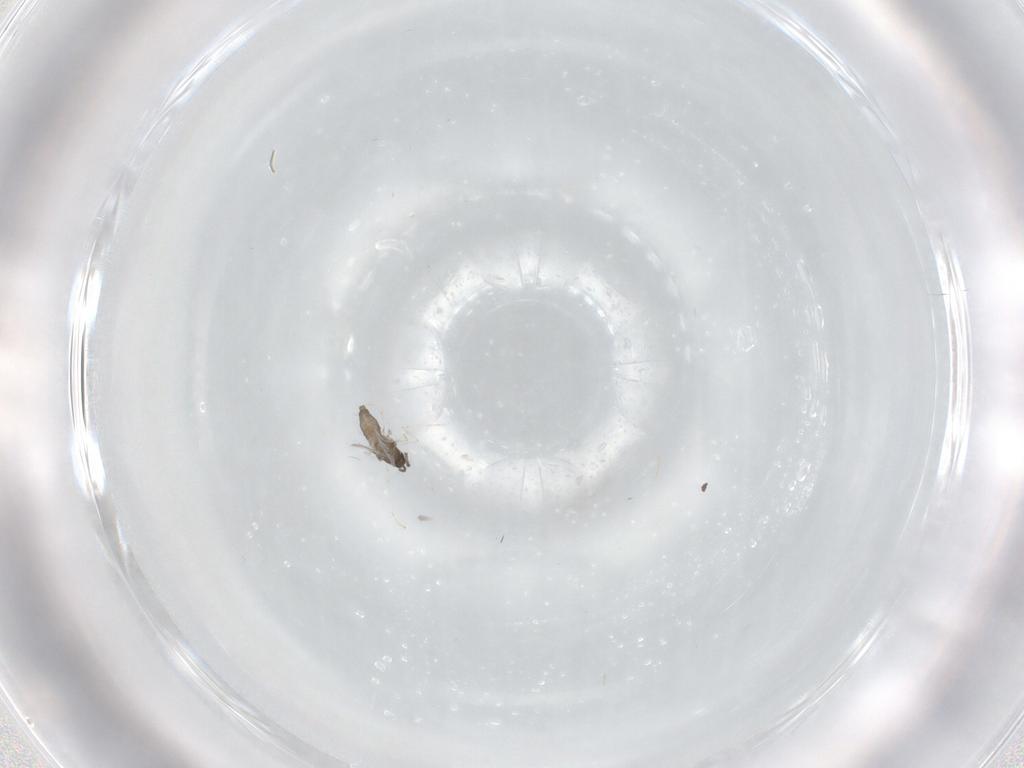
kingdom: Animalia
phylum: Arthropoda
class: Insecta
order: Diptera
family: Cecidomyiidae
